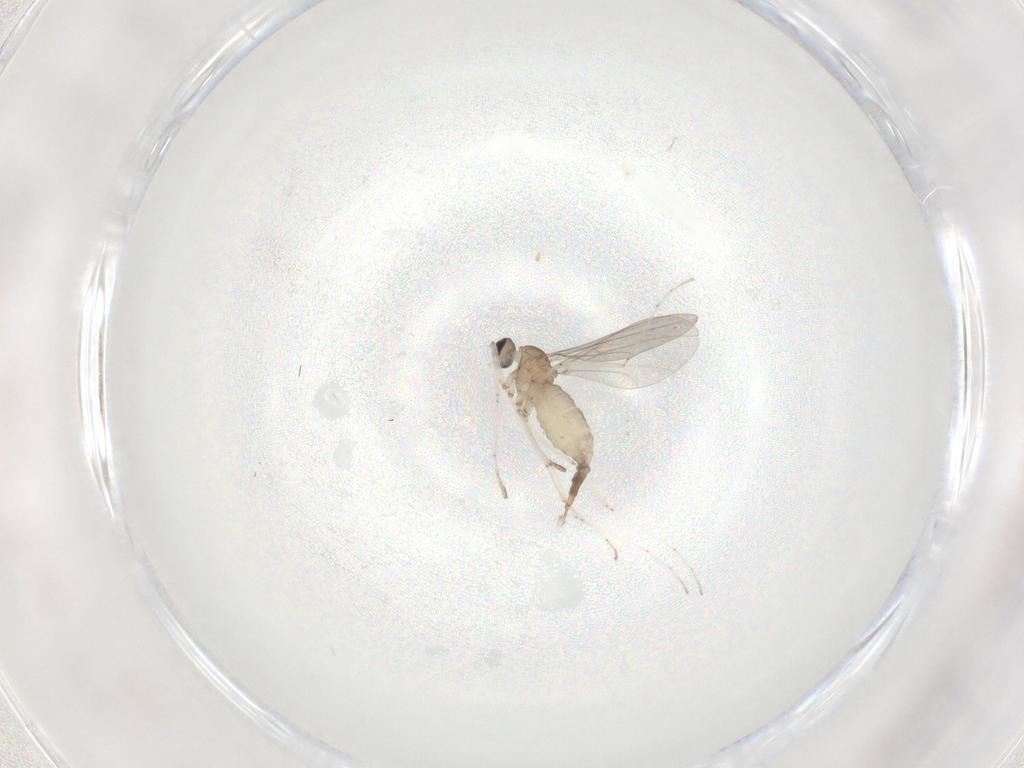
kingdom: Animalia
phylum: Arthropoda
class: Insecta
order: Diptera
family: Cecidomyiidae
